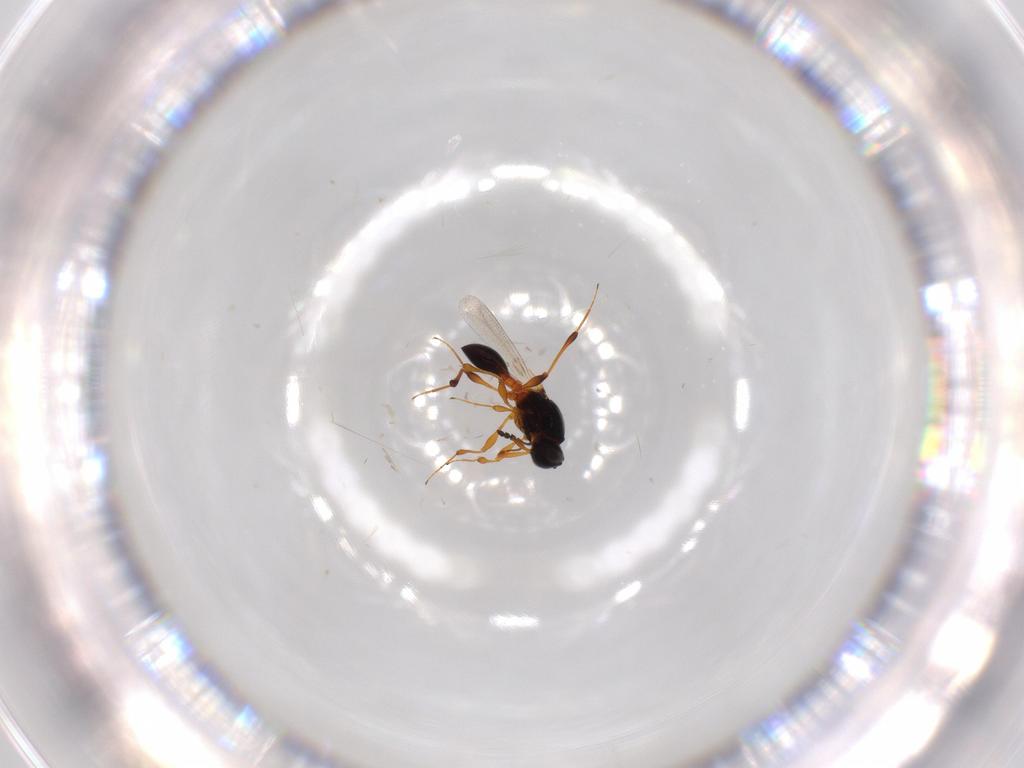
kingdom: Animalia
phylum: Arthropoda
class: Insecta
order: Hymenoptera
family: Platygastridae
